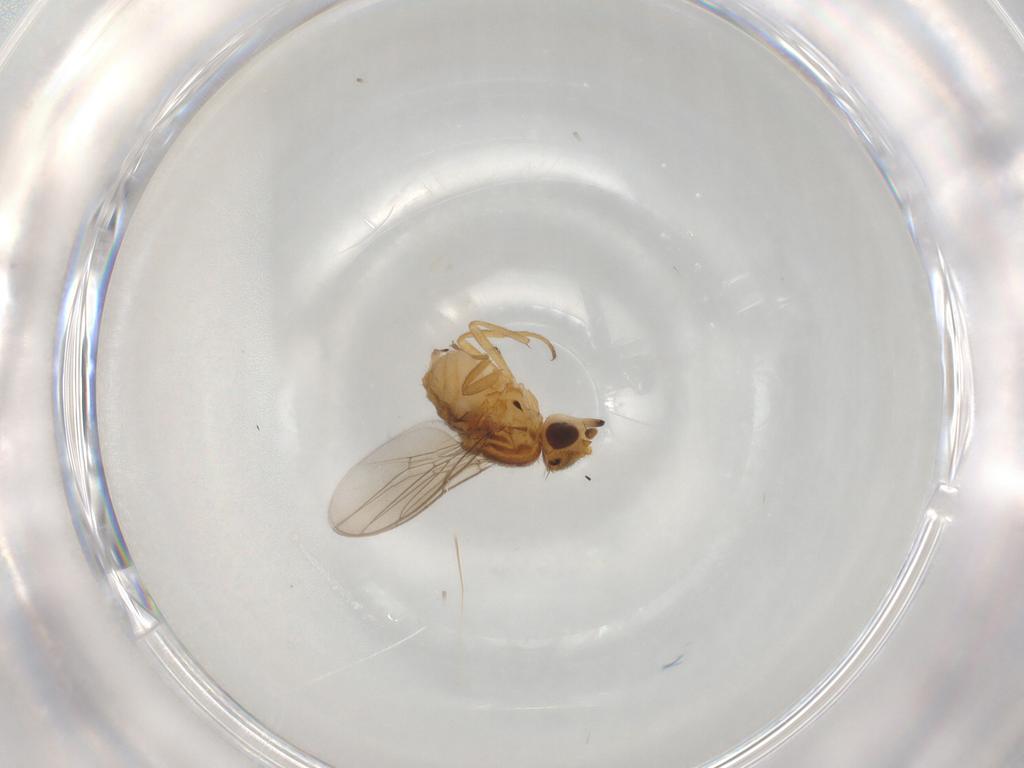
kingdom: Animalia
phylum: Arthropoda
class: Insecta
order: Diptera
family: Chloropidae
